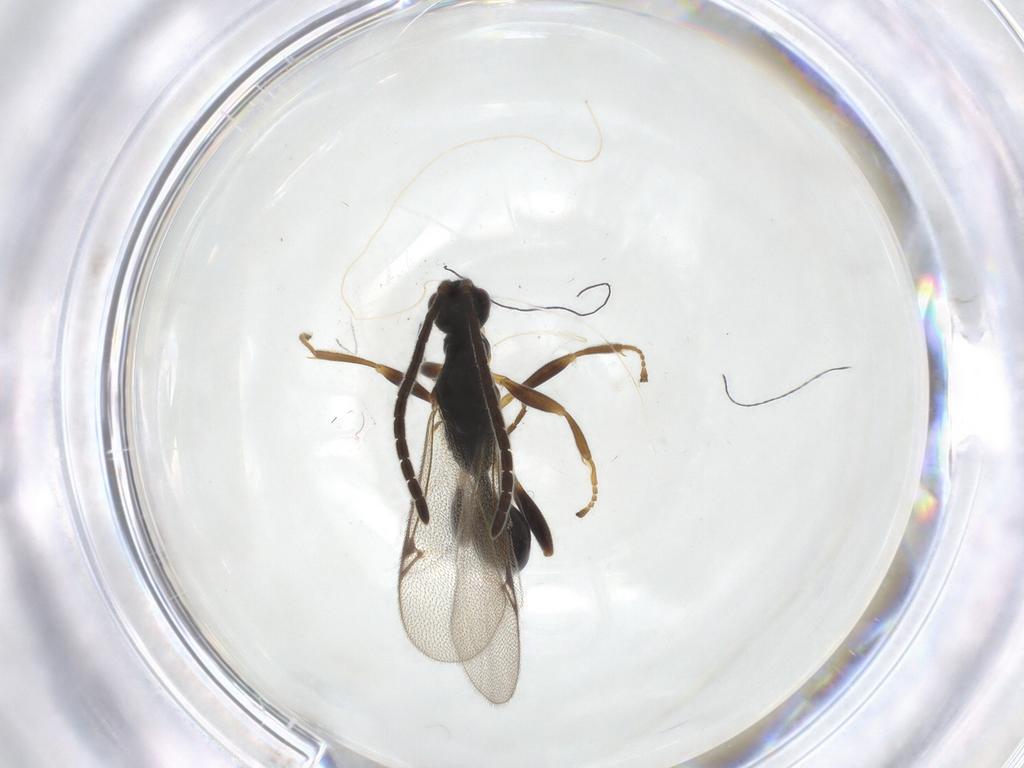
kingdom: Animalia
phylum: Arthropoda
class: Insecta
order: Hymenoptera
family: Proctotrupidae
